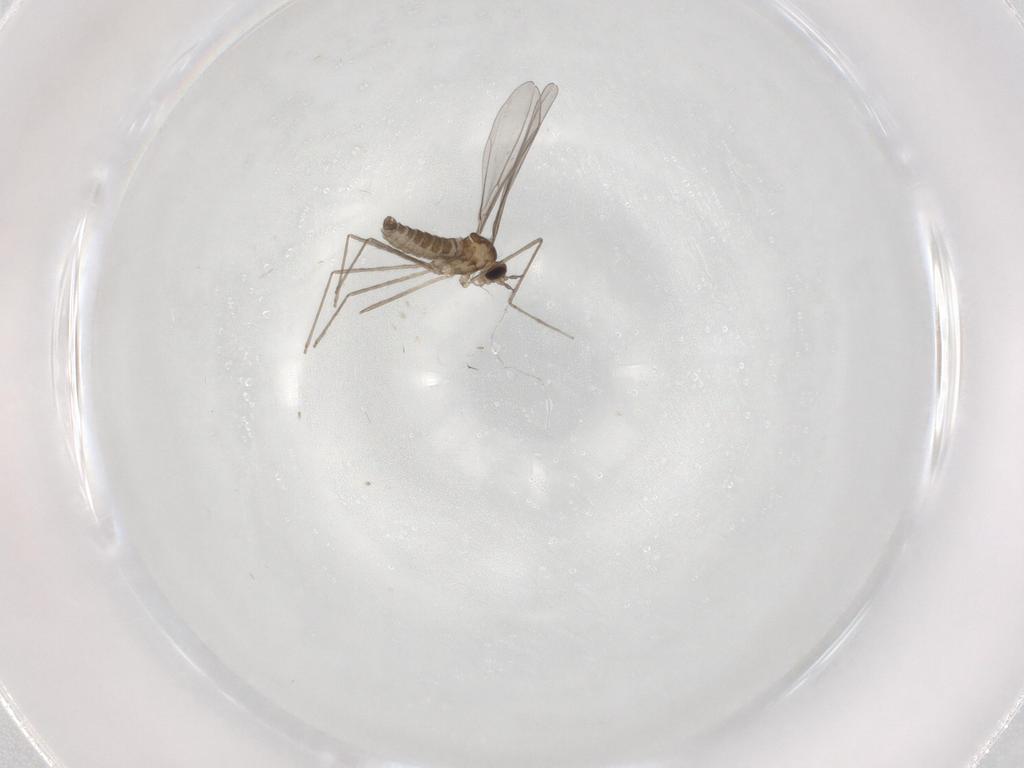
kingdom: Animalia
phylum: Arthropoda
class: Insecta
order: Diptera
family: Cecidomyiidae
